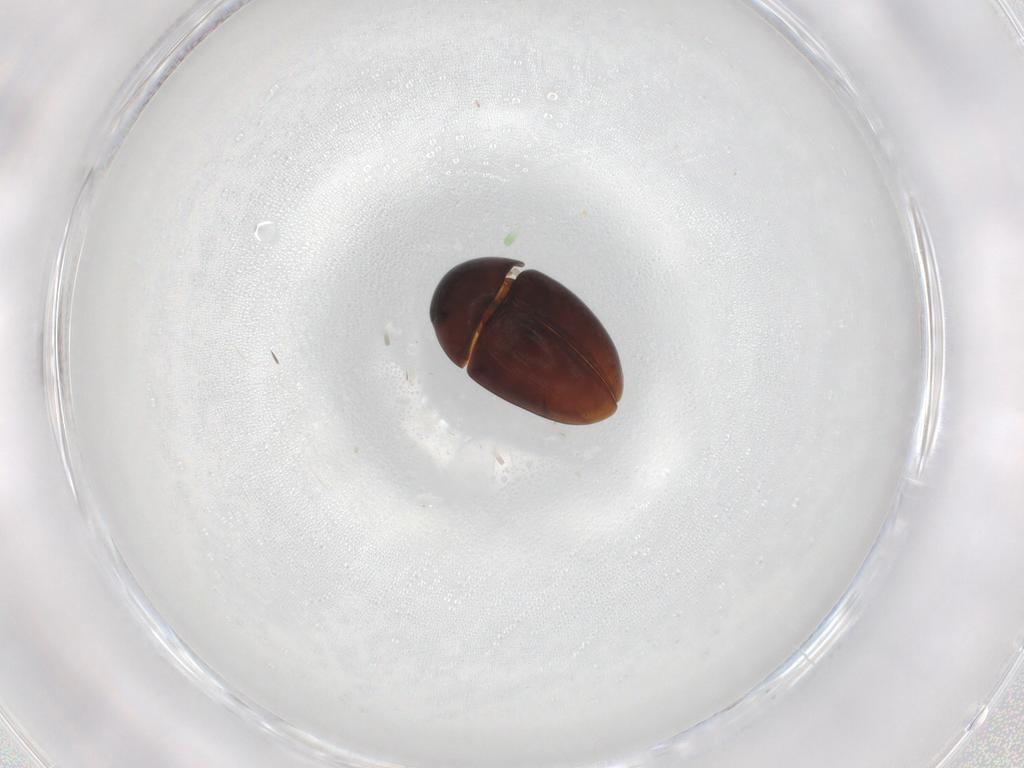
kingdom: Animalia
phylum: Arthropoda
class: Insecta
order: Coleoptera
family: Phalacridae
